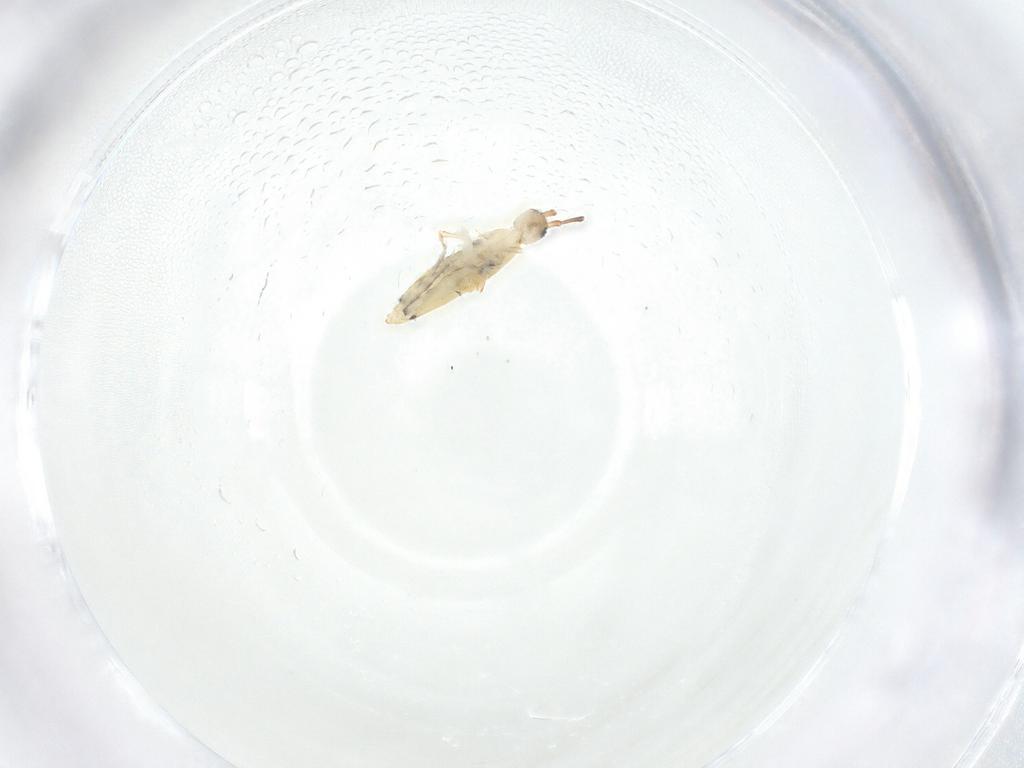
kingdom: Animalia
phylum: Arthropoda
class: Collembola
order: Entomobryomorpha
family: Entomobryidae
